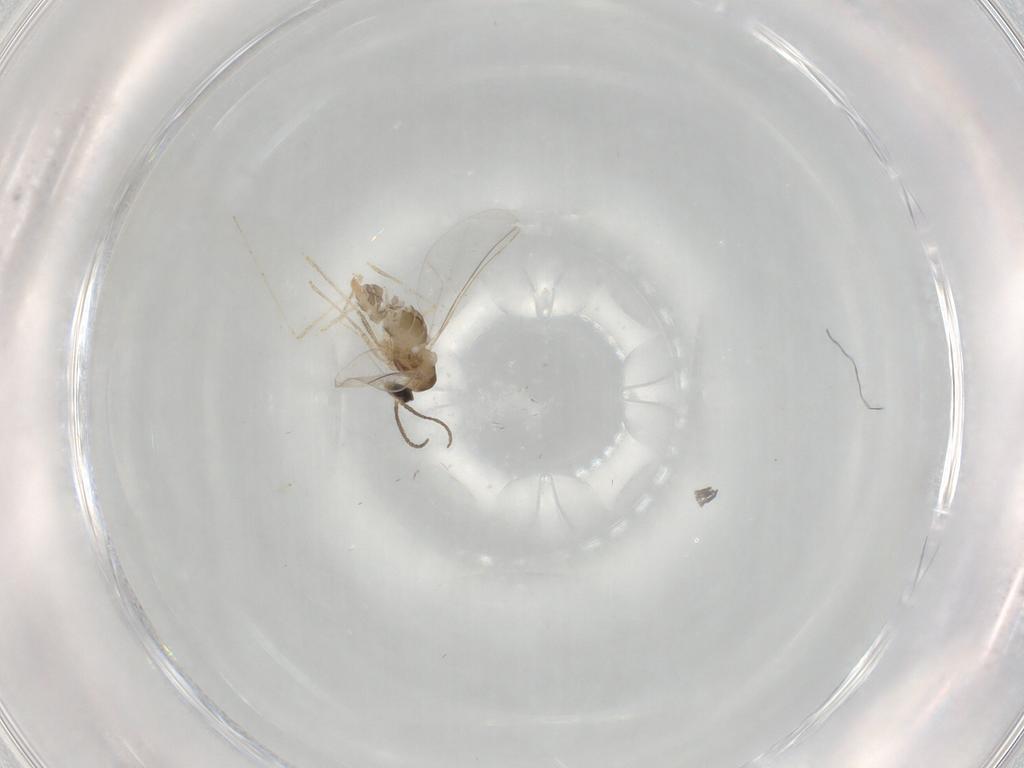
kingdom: Animalia
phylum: Arthropoda
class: Insecta
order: Diptera
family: Cecidomyiidae
